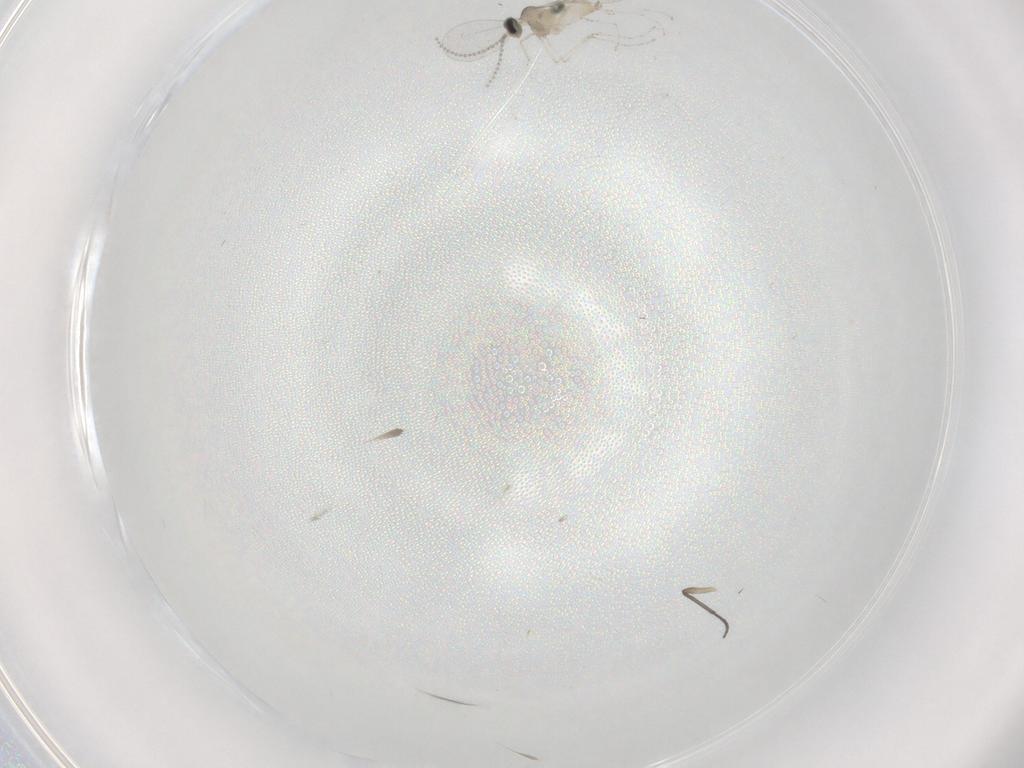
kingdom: Animalia
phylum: Arthropoda
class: Insecta
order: Diptera
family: Cecidomyiidae
